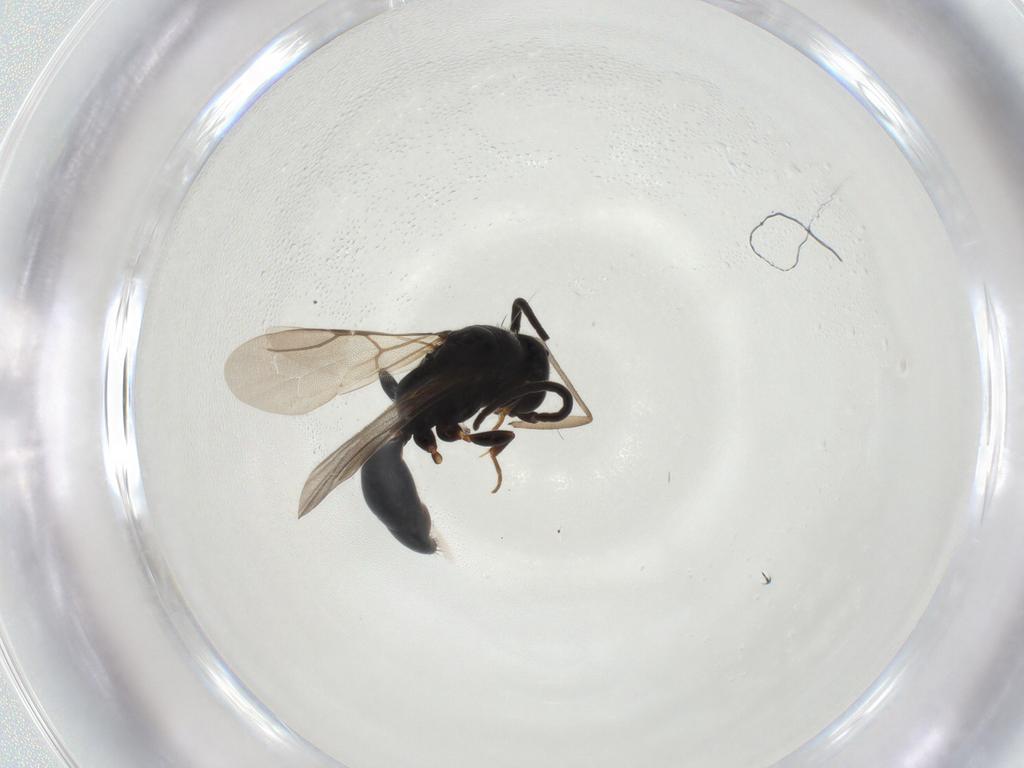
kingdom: Animalia
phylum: Arthropoda
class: Insecta
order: Hymenoptera
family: Bethylidae
